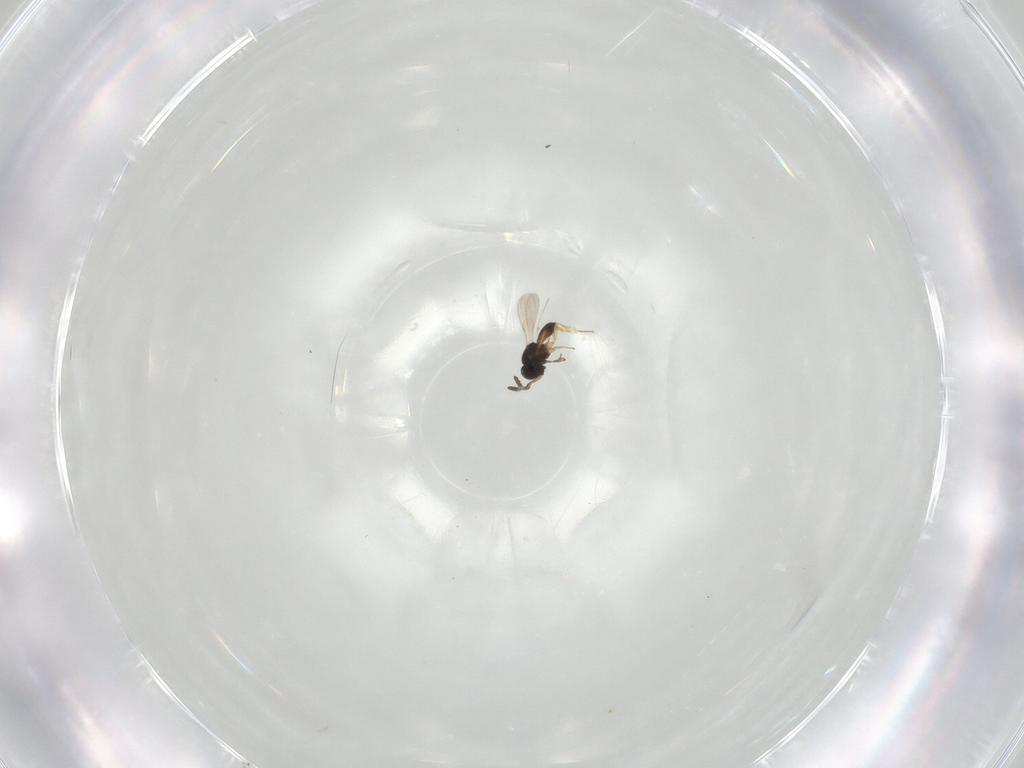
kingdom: Animalia
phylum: Arthropoda
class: Insecta
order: Hymenoptera
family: Scelionidae
